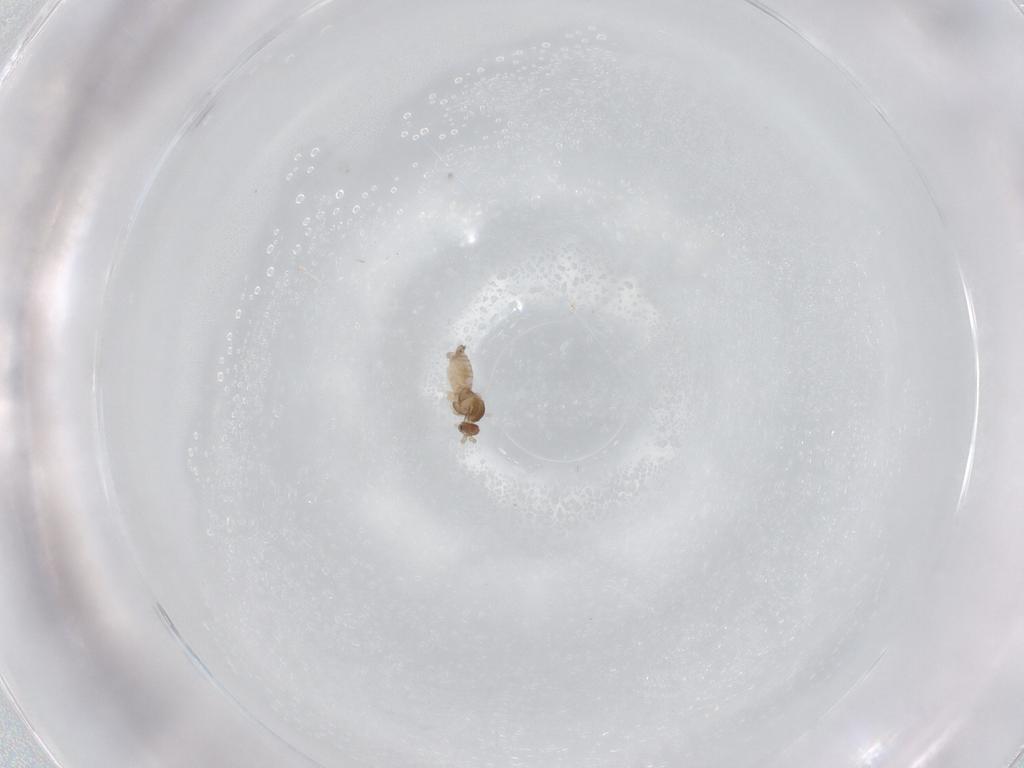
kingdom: Animalia
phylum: Arthropoda
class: Insecta
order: Diptera
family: Cecidomyiidae
